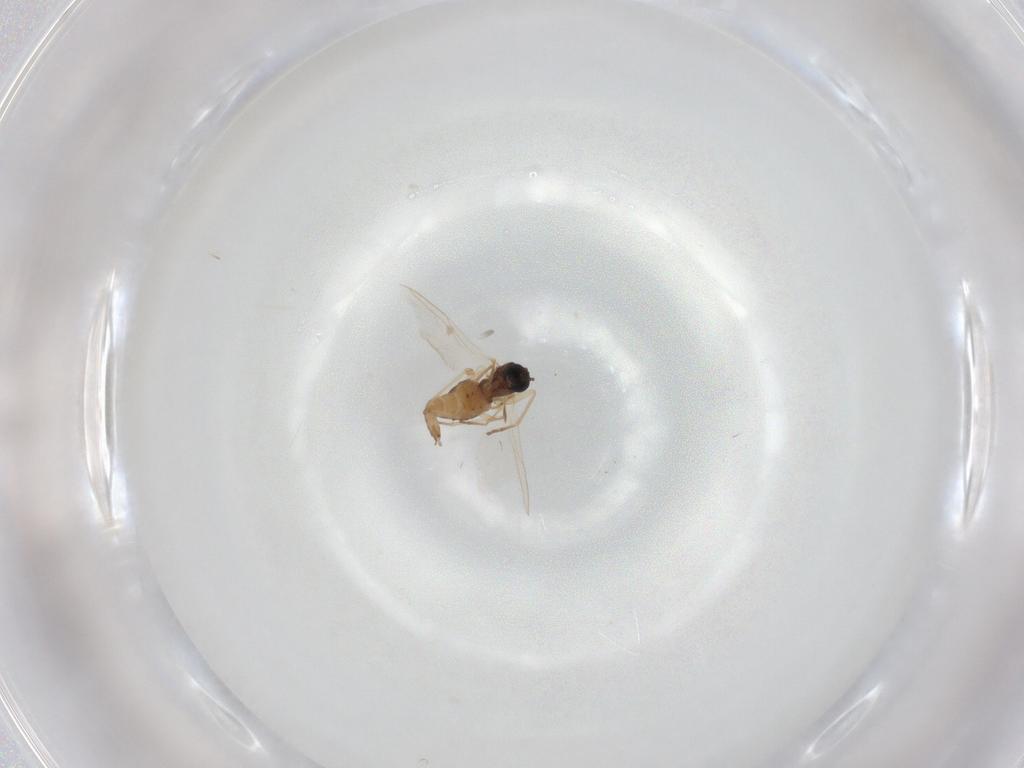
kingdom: Animalia
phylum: Arthropoda
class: Insecta
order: Diptera
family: Sciaridae
